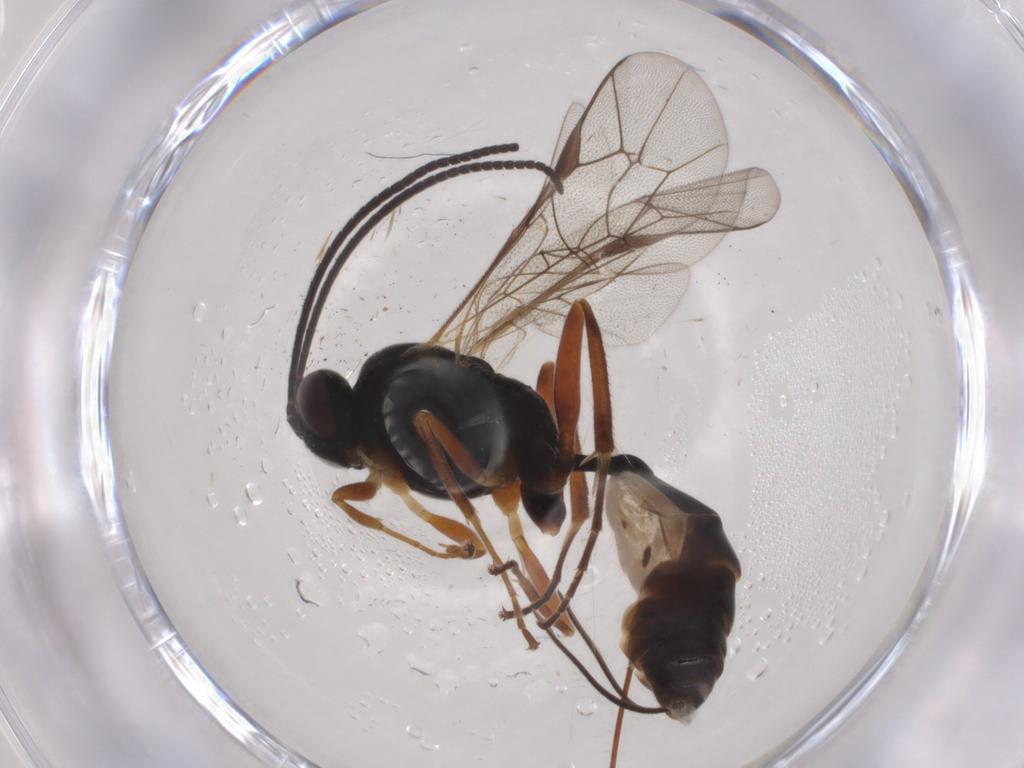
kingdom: Animalia
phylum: Arthropoda
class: Insecta
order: Hymenoptera
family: Ichneumonidae
